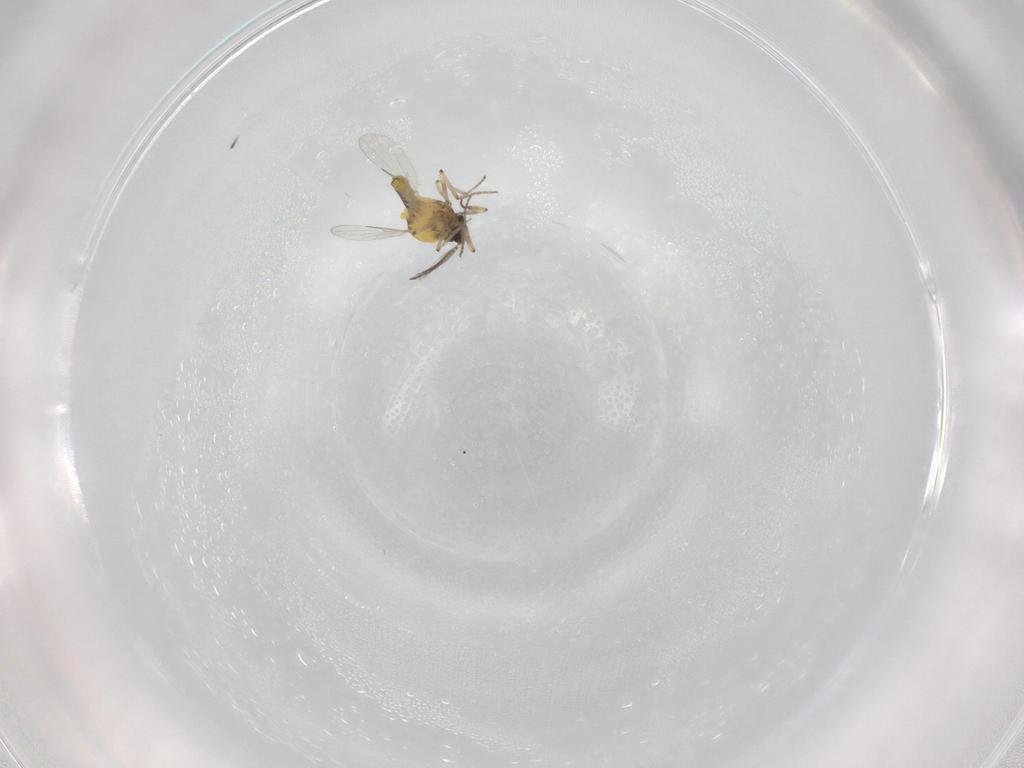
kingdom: Animalia
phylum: Arthropoda
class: Insecta
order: Diptera
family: Ceratopogonidae
